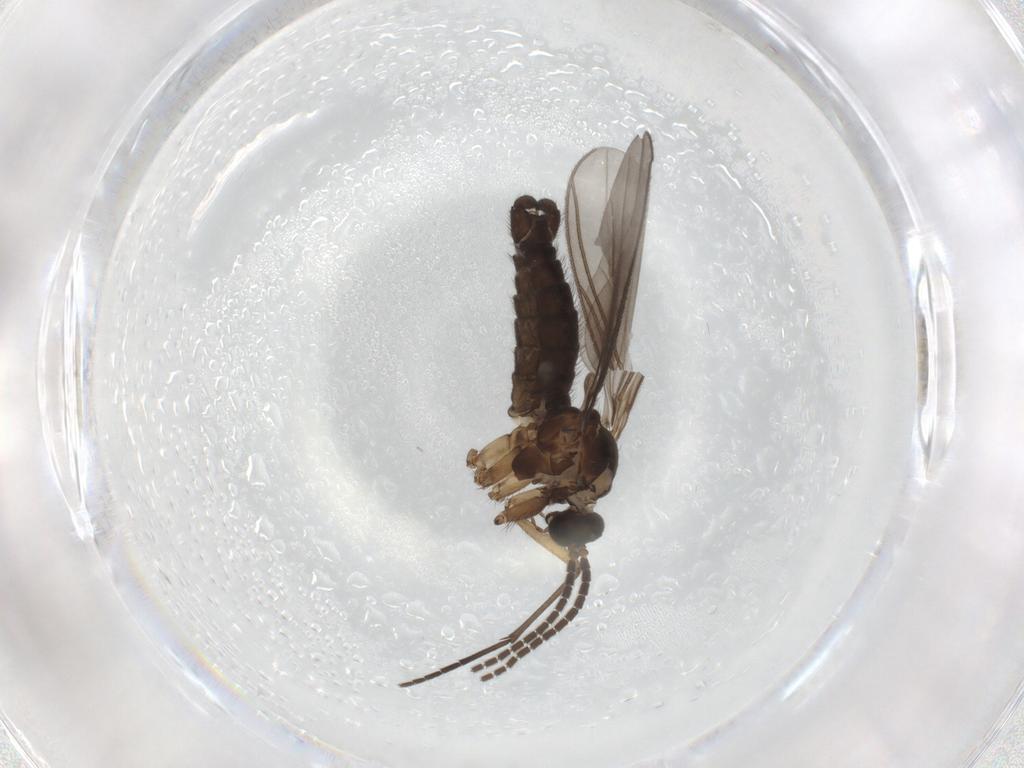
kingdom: Animalia
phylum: Arthropoda
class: Insecta
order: Diptera
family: Sciaridae
